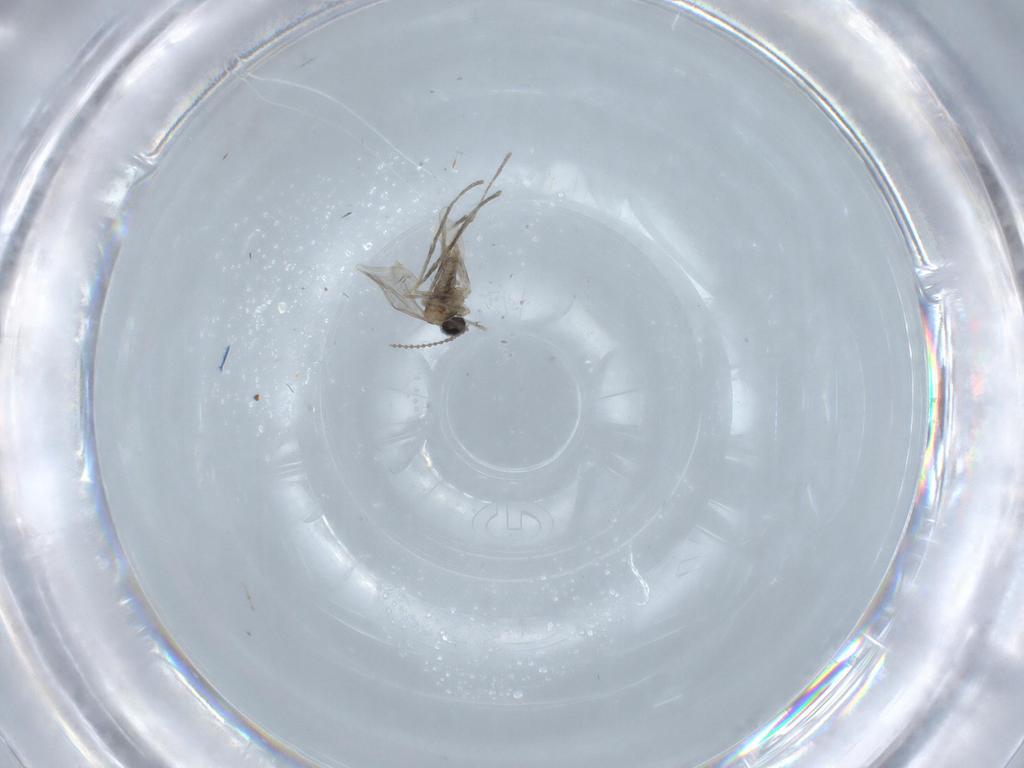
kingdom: Animalia
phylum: Arthropoda
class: Insecta
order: Diptera
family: Cecidomyiidae
